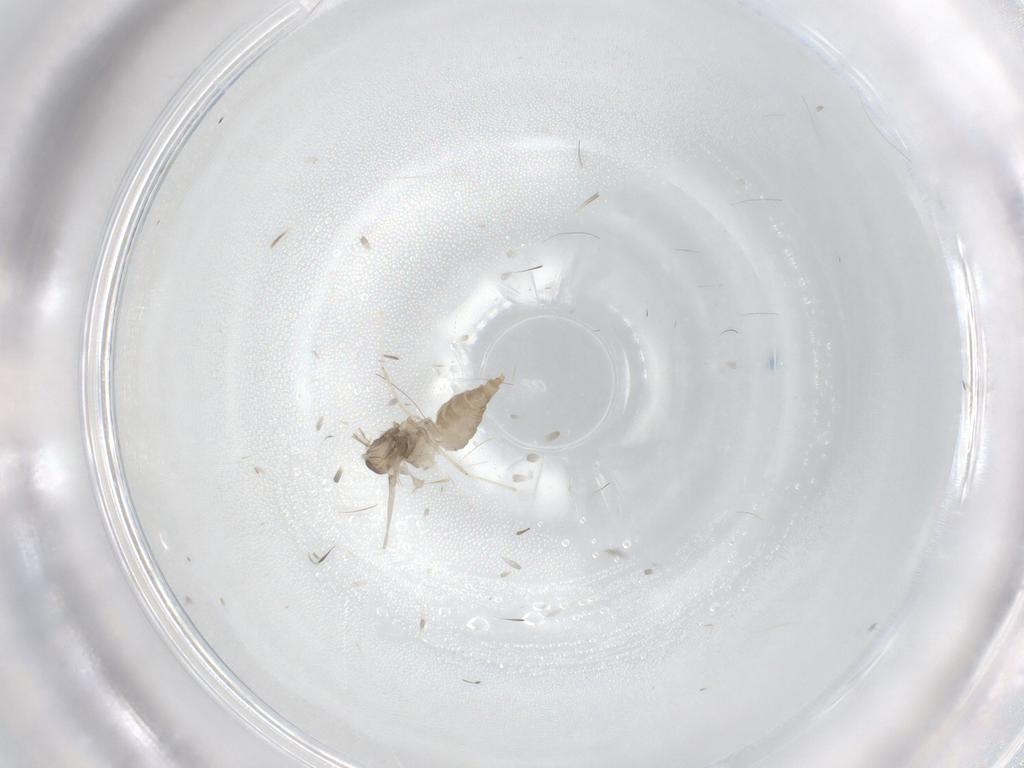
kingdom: Animalia
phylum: Arthropoda
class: Insecta
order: Diptera
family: Cecidomyiidae
